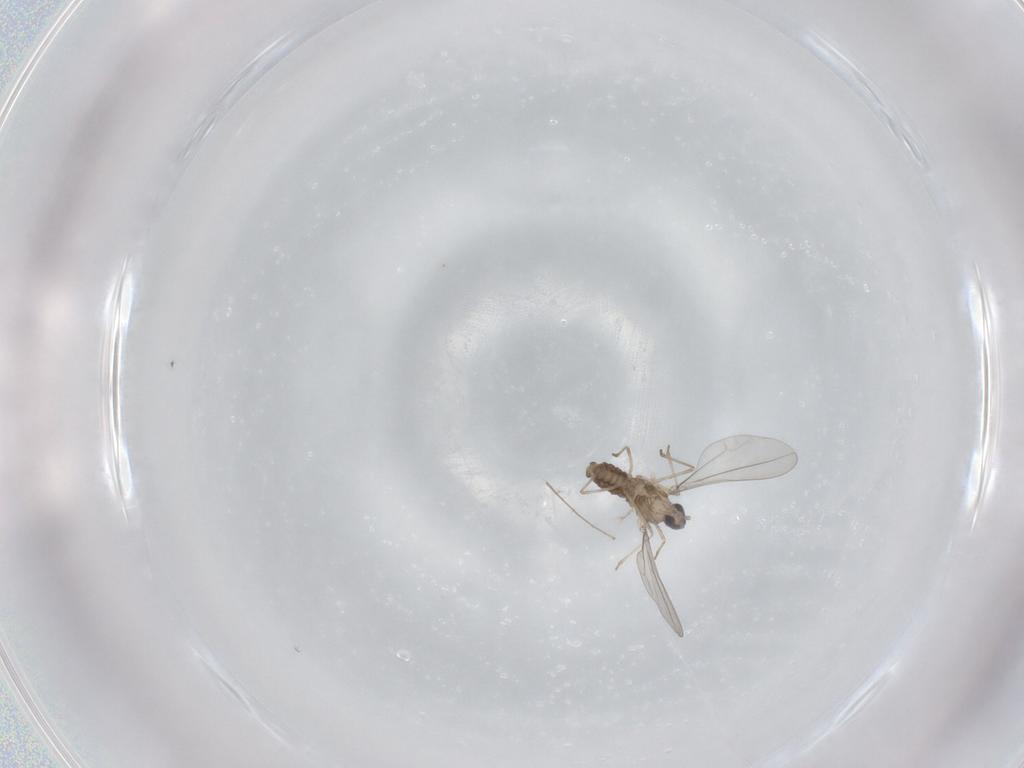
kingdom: Animalia
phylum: Arthropoda
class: Insecta
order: Diptera
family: Cecidomyiidae
